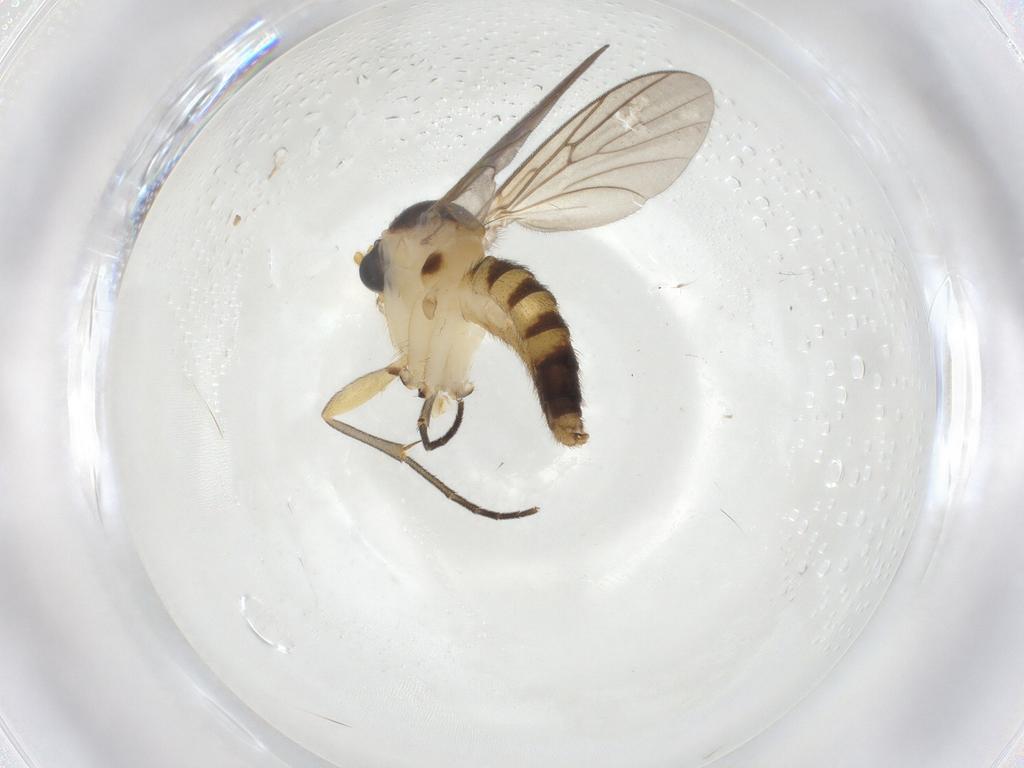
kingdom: Animalia
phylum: Arthropoda
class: Insecta
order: Diptera
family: Mycetophilidae
